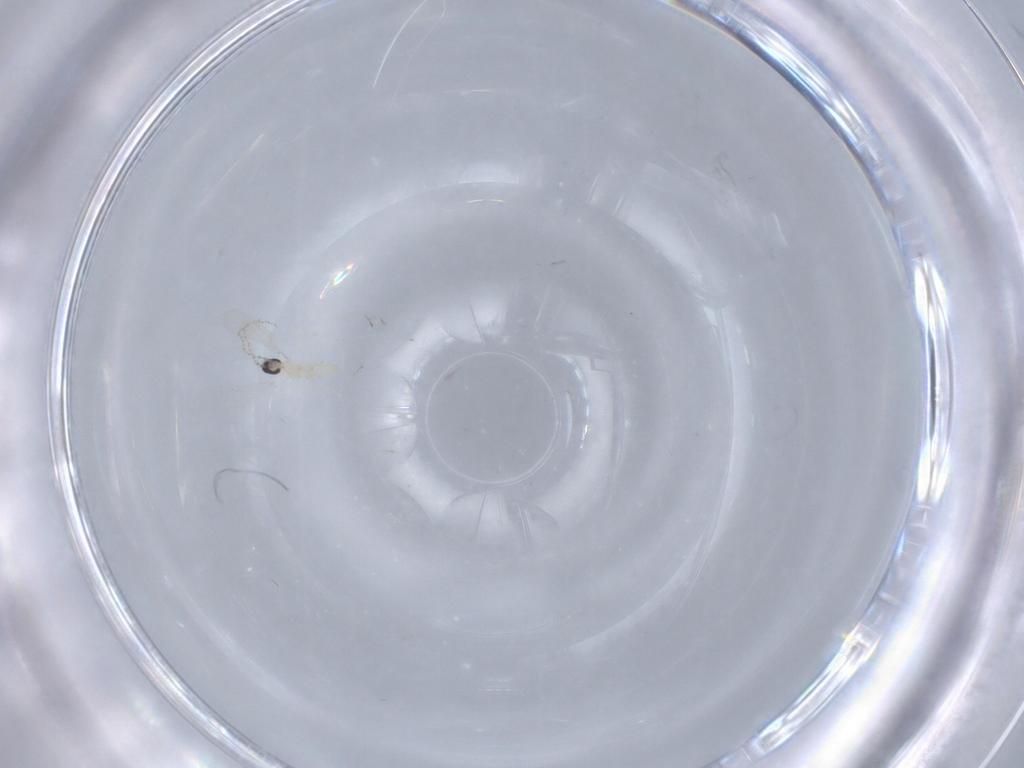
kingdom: Animalia
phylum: Arthropoda
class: Insecta
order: Diptera
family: Cecidomyiidae
